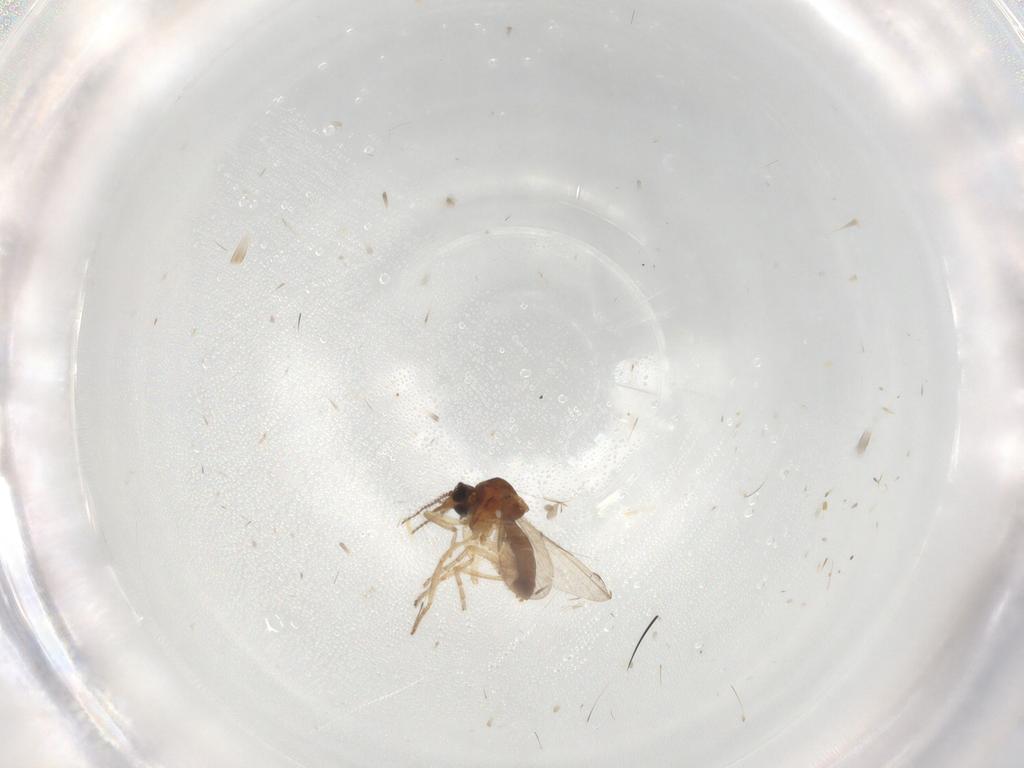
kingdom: Animalia
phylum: Arthropoda
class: Insecta
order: Diptera
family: Ceratopogonidae
